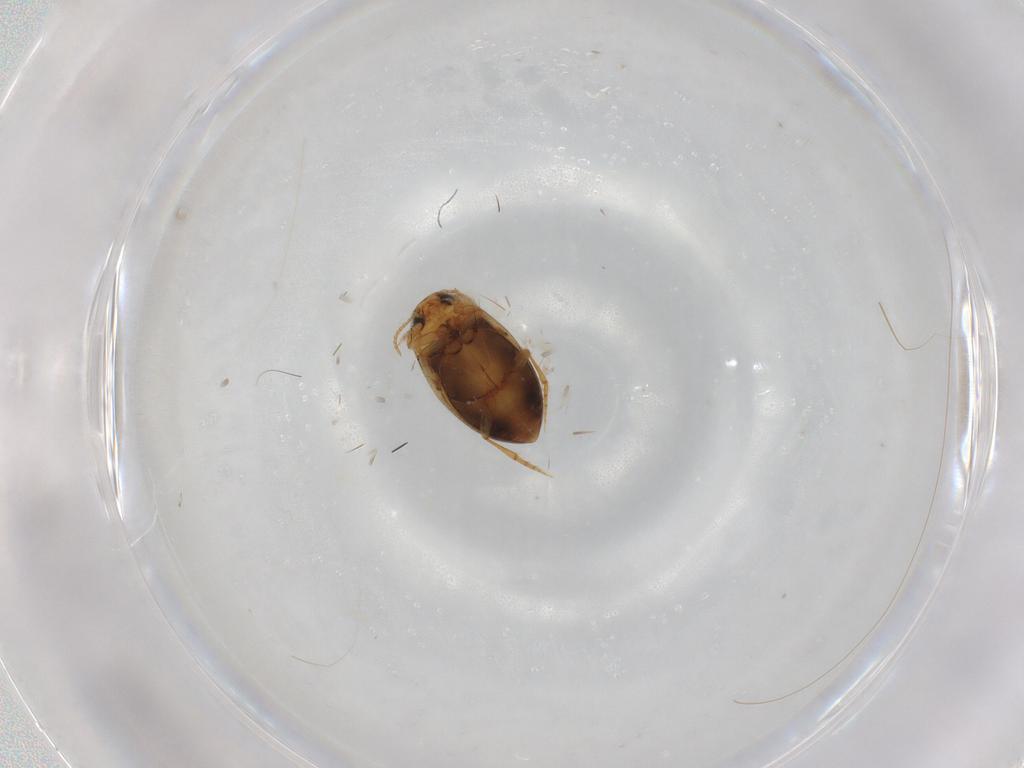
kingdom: Animalia
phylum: Arthropoda
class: Insecta
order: Coleoptera
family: Dytiscidae
